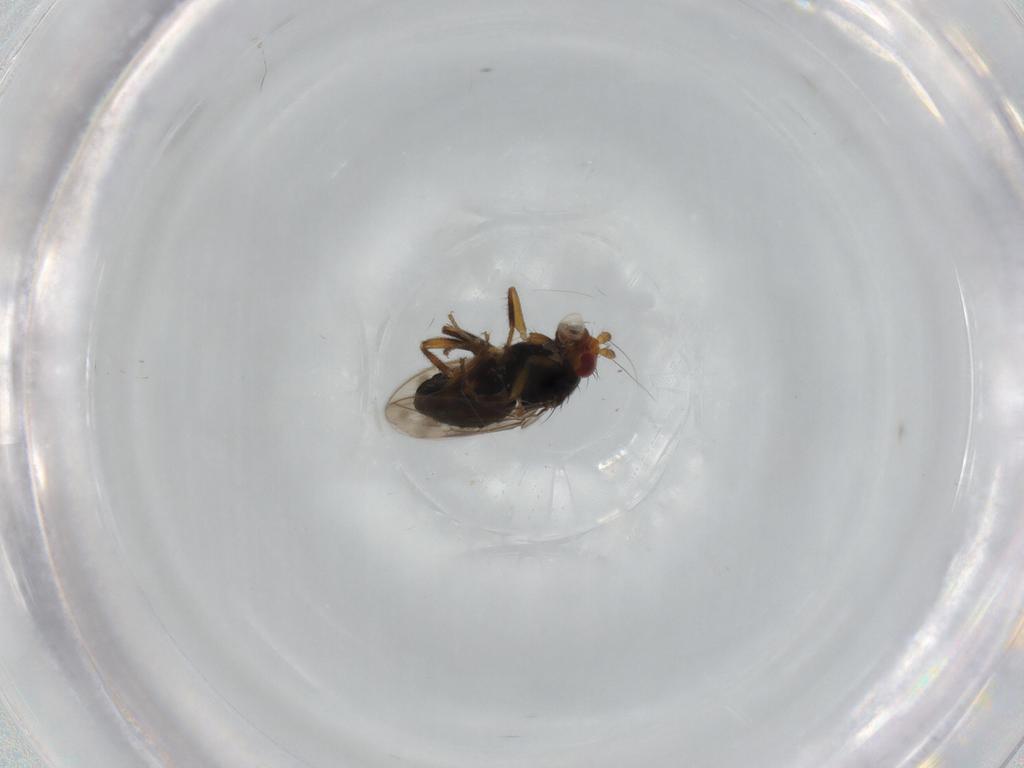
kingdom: Animalia
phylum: Arthropoda
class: Insecta
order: Diptera
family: Sphaeroceridae
